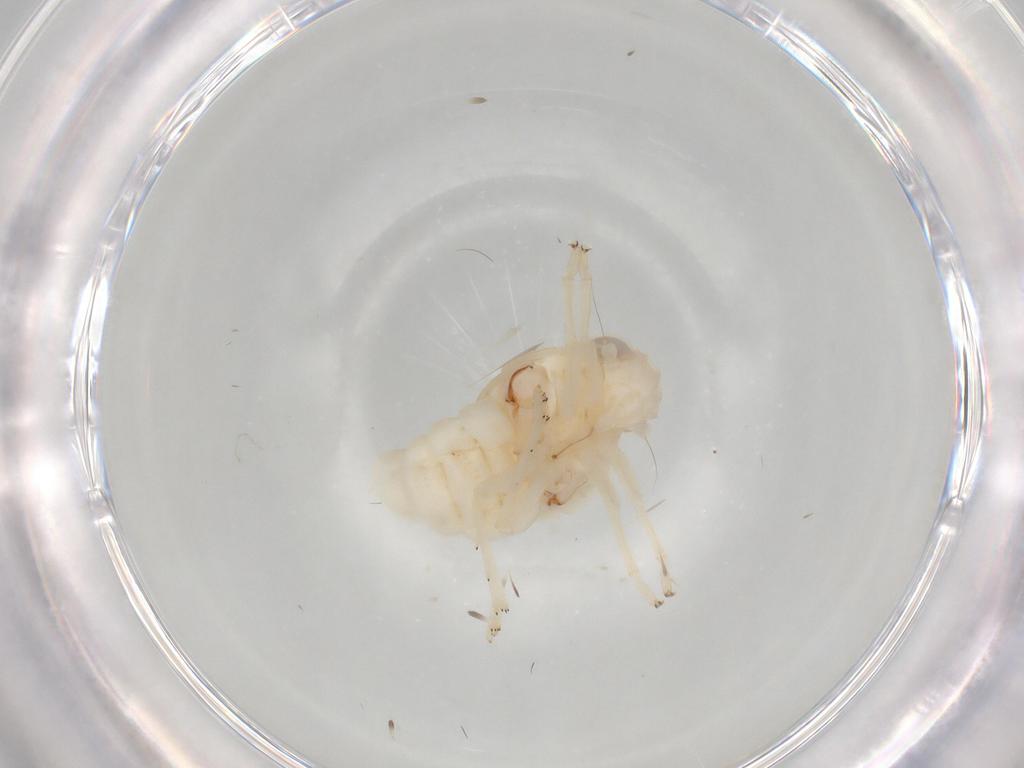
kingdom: Animalia
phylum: Arthropoda
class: Insecta
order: Hemiptera
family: Nogodinidae
